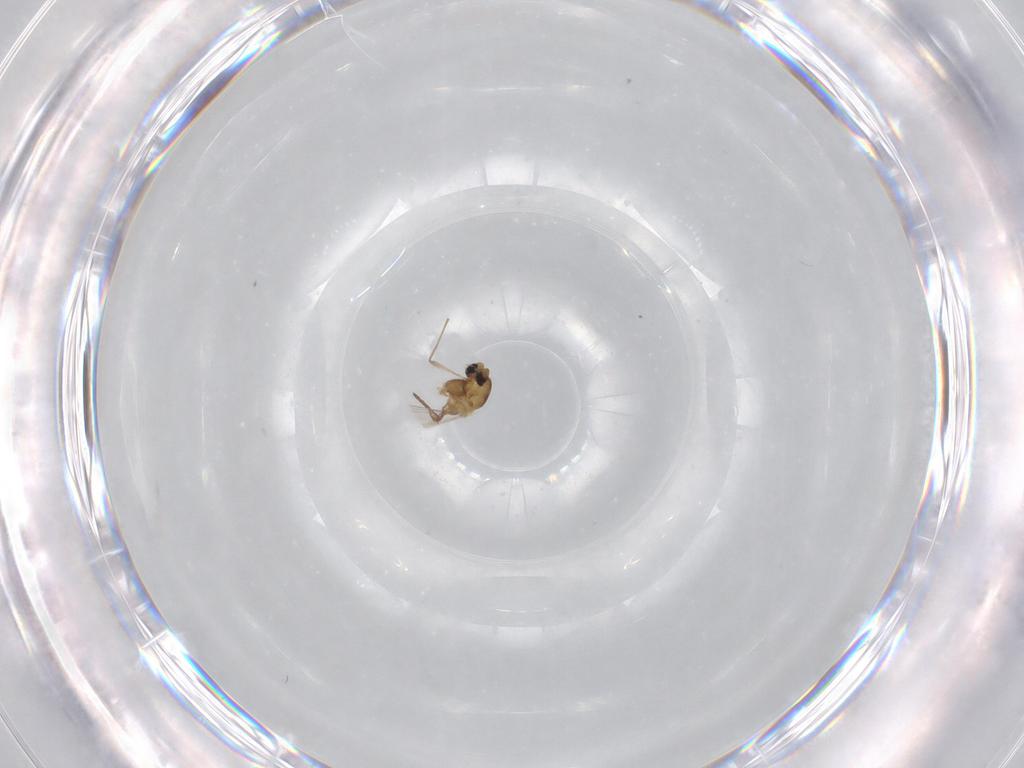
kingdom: Animalia
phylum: Arthropoda
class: Insecta
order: Diptera
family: Chironomidae
